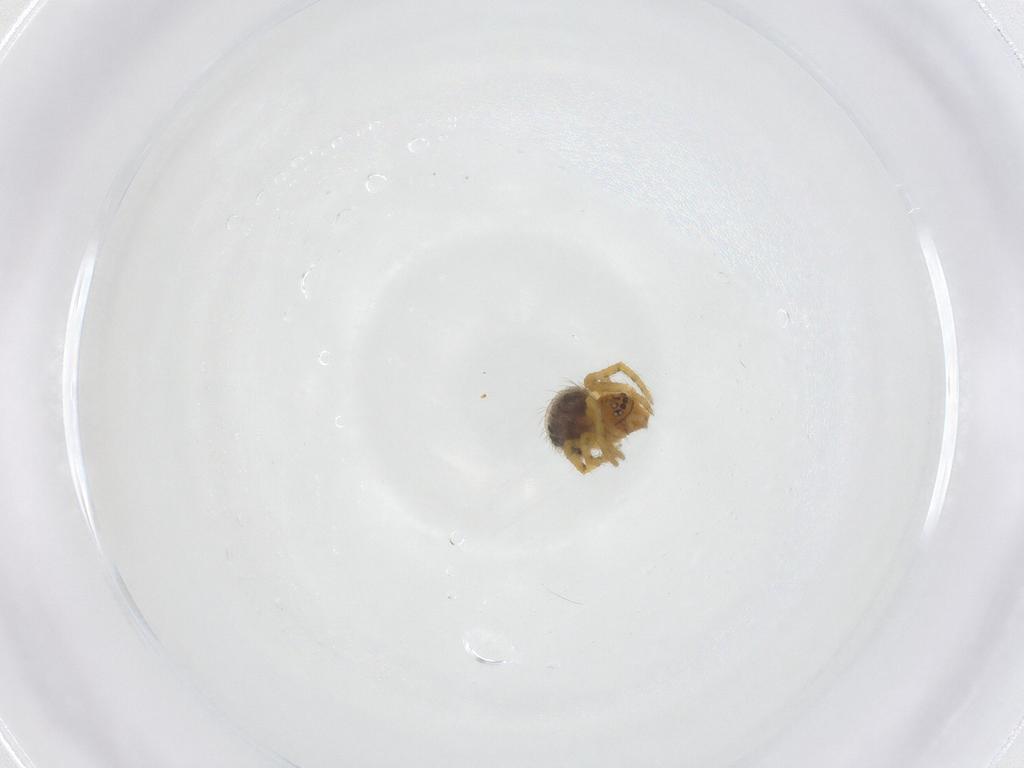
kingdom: Animalia
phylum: Arthropoda
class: Arachnida
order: Araneae
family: Theridiidae
